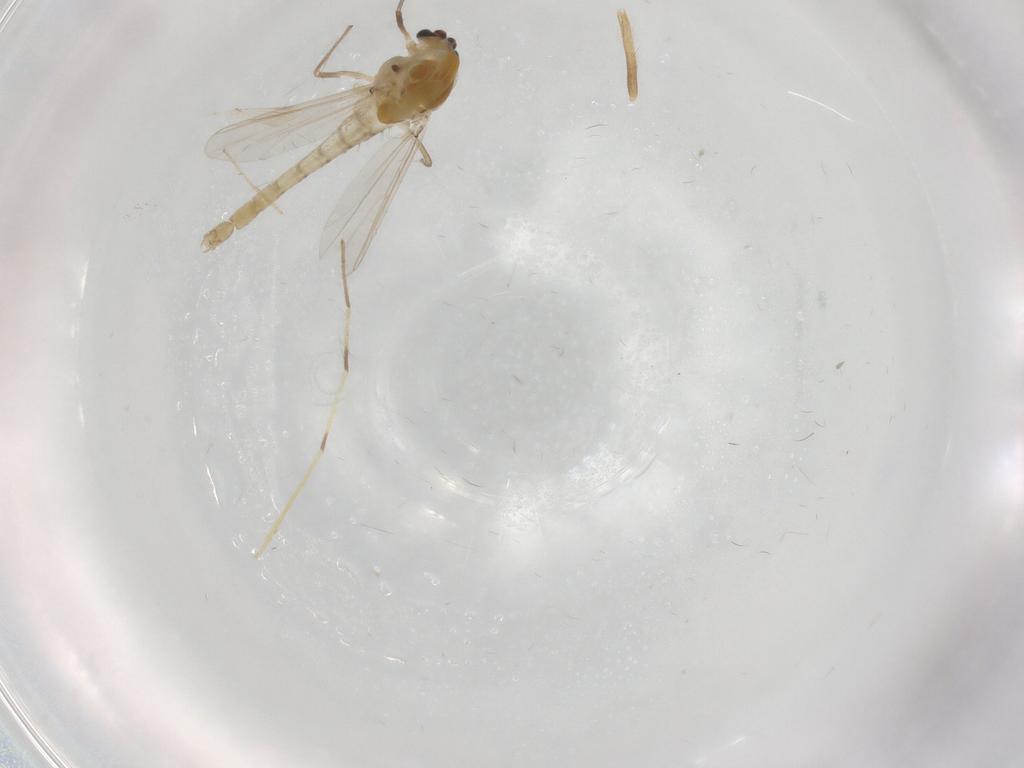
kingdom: Animalia
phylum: Arthropoda
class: Insecta
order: Diptera
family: Chironomidae
